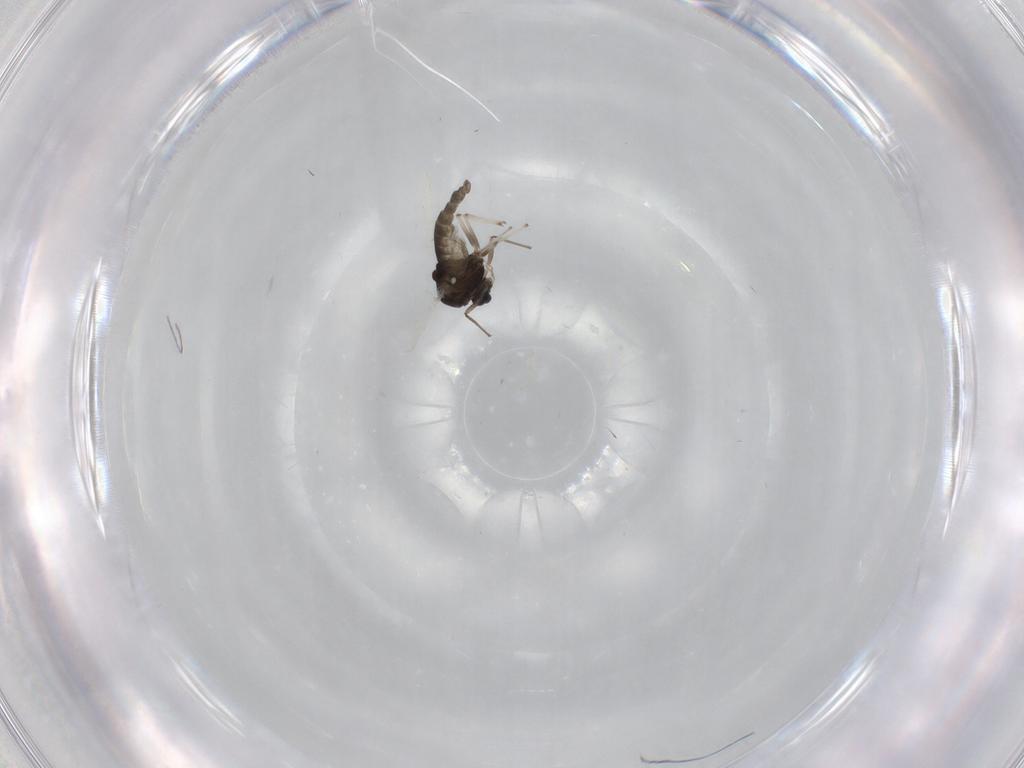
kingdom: Animalia
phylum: Arthropoda
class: Insecta
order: Diptera
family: Chironomidae
